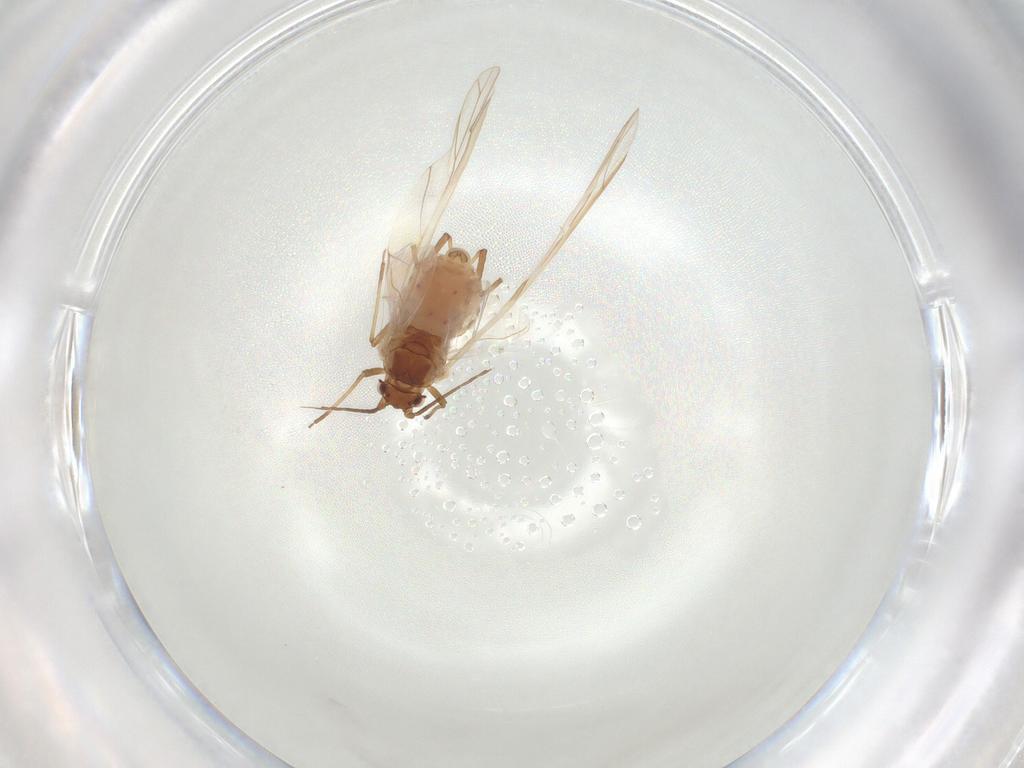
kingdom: Animalia
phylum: Arthropoda
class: Insecta
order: Hemiptera
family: Aphididae
